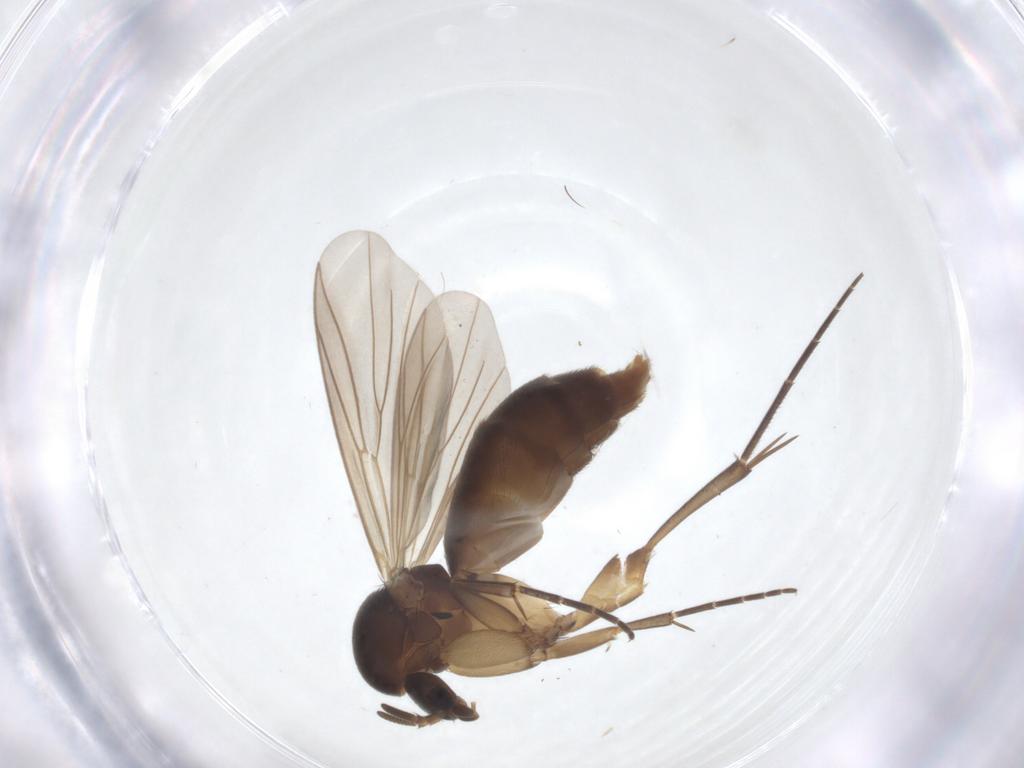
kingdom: Animalia
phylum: Arthropoda
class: Insecta
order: Diptera
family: Mycetophilidae
